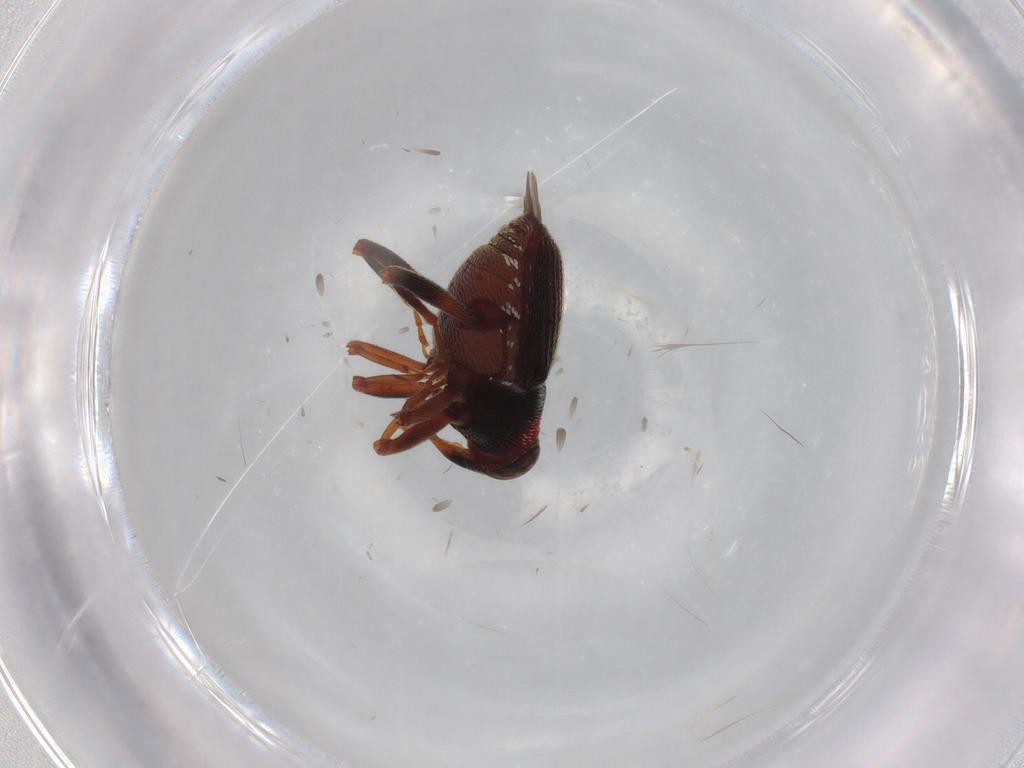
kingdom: Animalia
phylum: Arthropoda
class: Insecta
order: Coleoptera
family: Curculionidae
